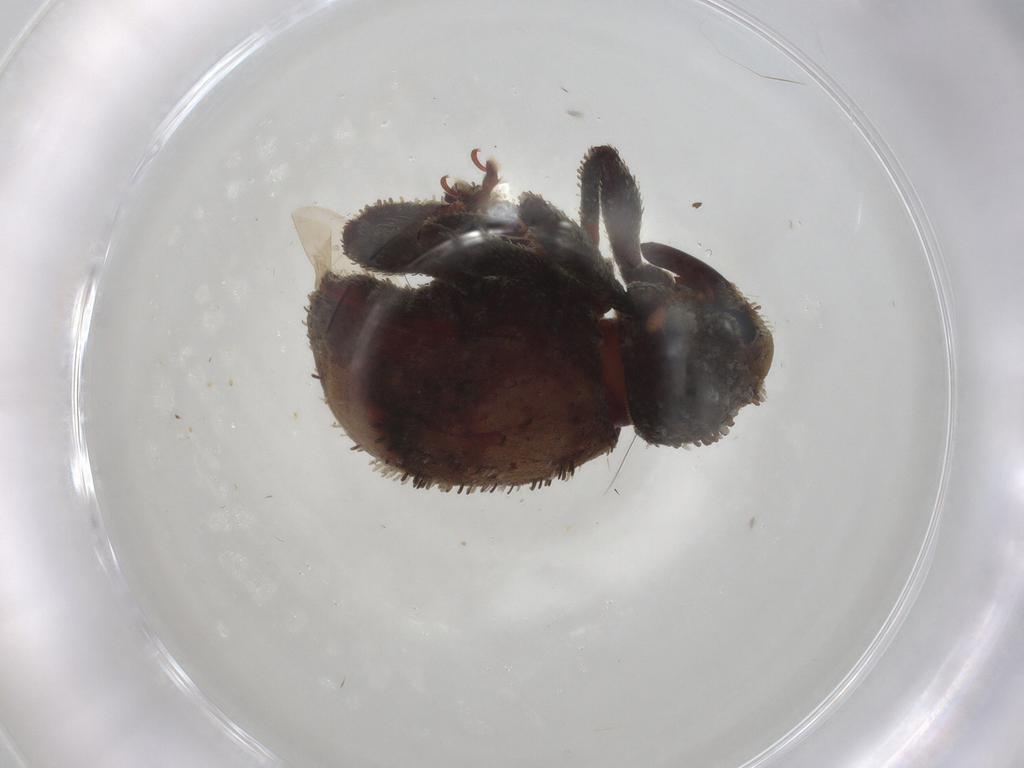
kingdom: Animalia
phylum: Arthropoda
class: Insecta
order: Coleoptera
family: Curculionidae
